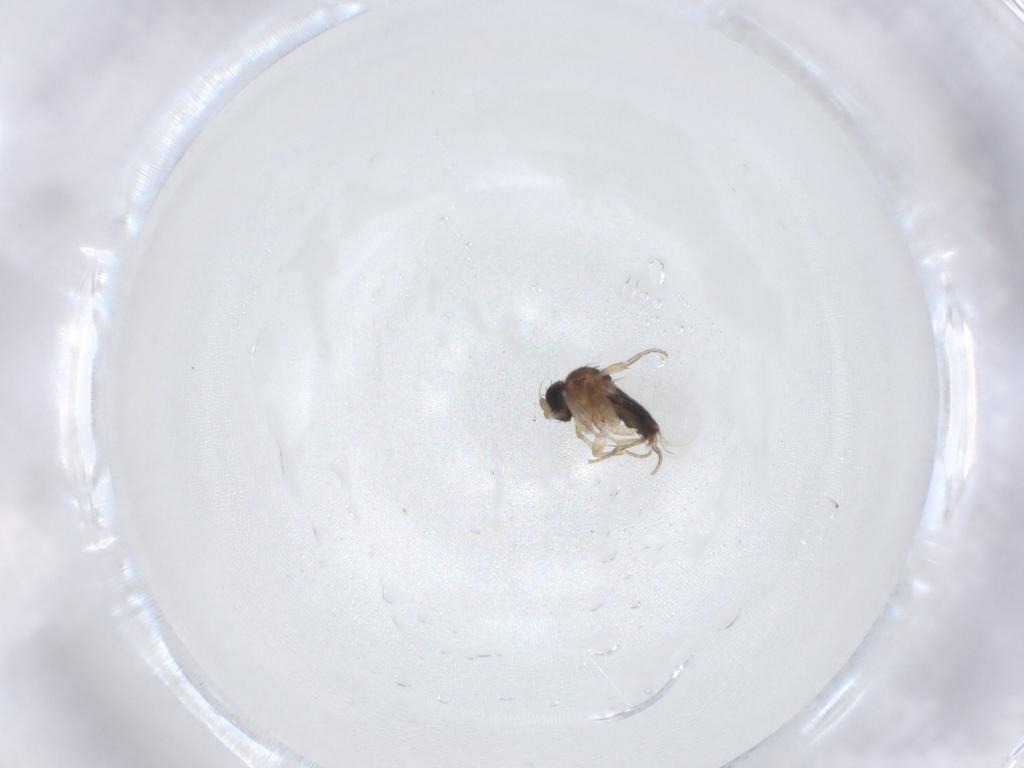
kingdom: Animalia
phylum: Arthropoda
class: Insecta
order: Diptera
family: Phoridae
